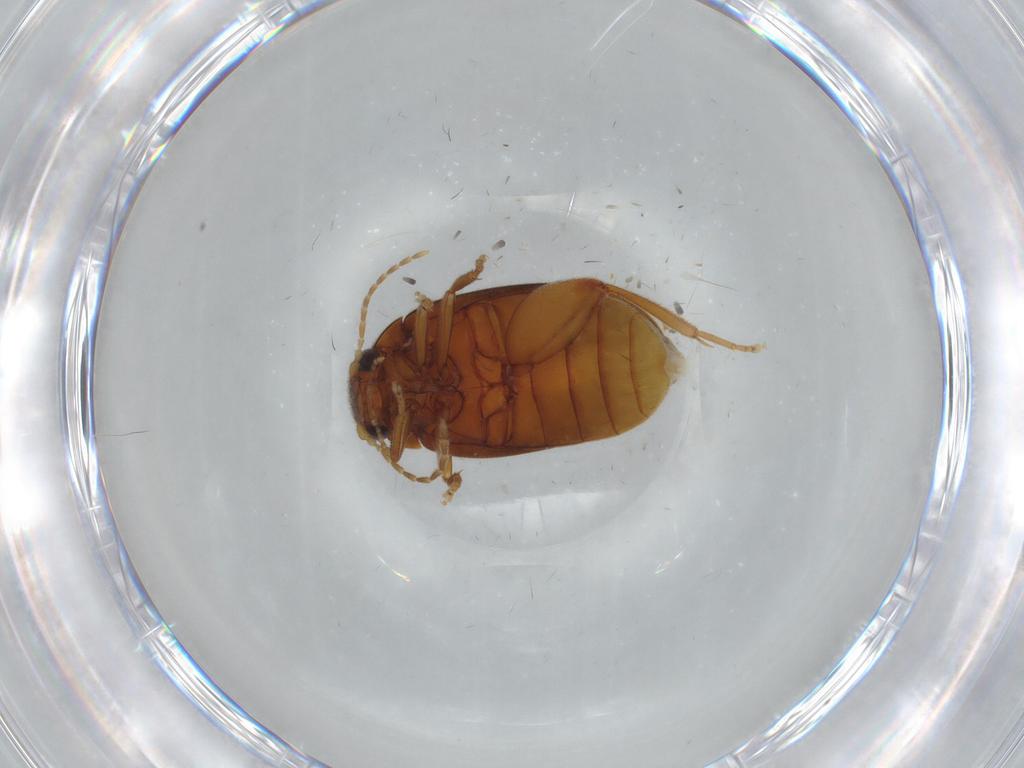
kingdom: Animalia
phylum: Arthropoda
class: Insecta
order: Coleoptera
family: Scirtidae
